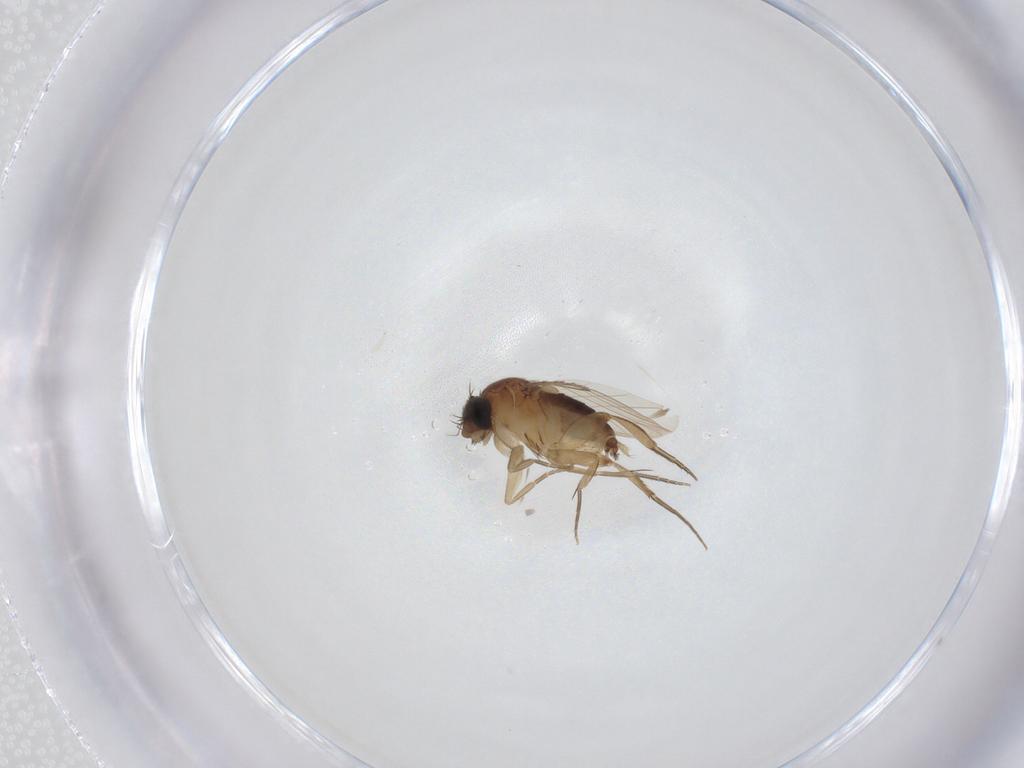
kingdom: Animalia
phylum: Arthropoda
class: Insecta
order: Diptera
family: Phoridae
